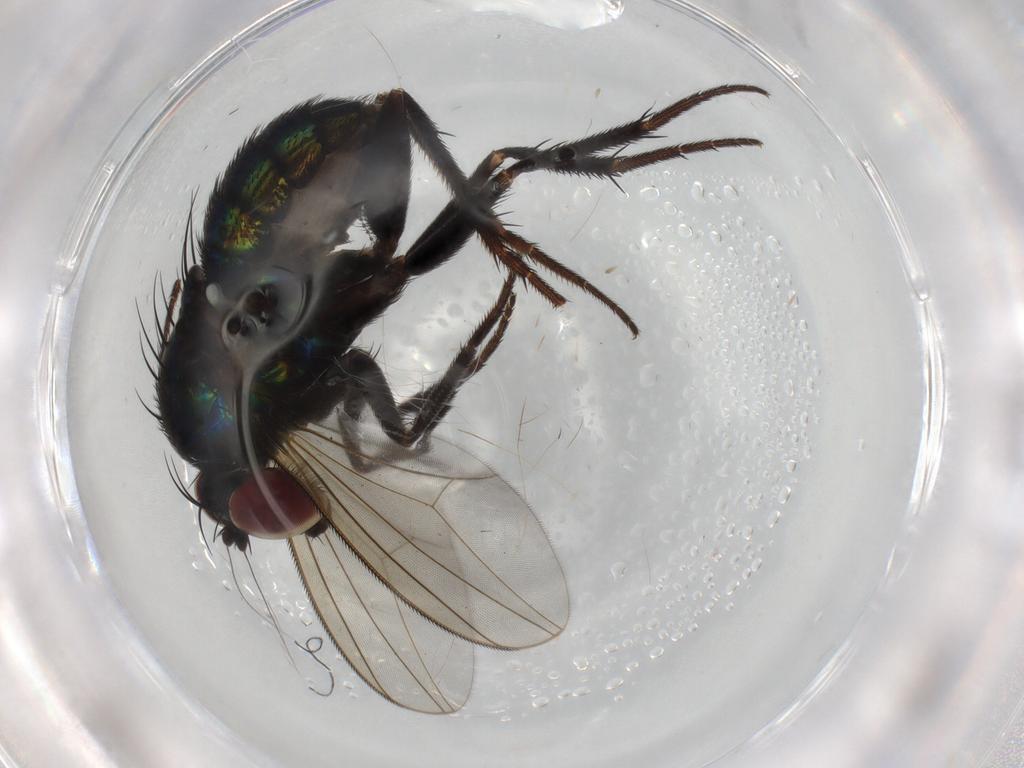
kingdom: Animalia
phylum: Arthropoda
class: Insecta
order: Diptera
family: Dolichopodidae
